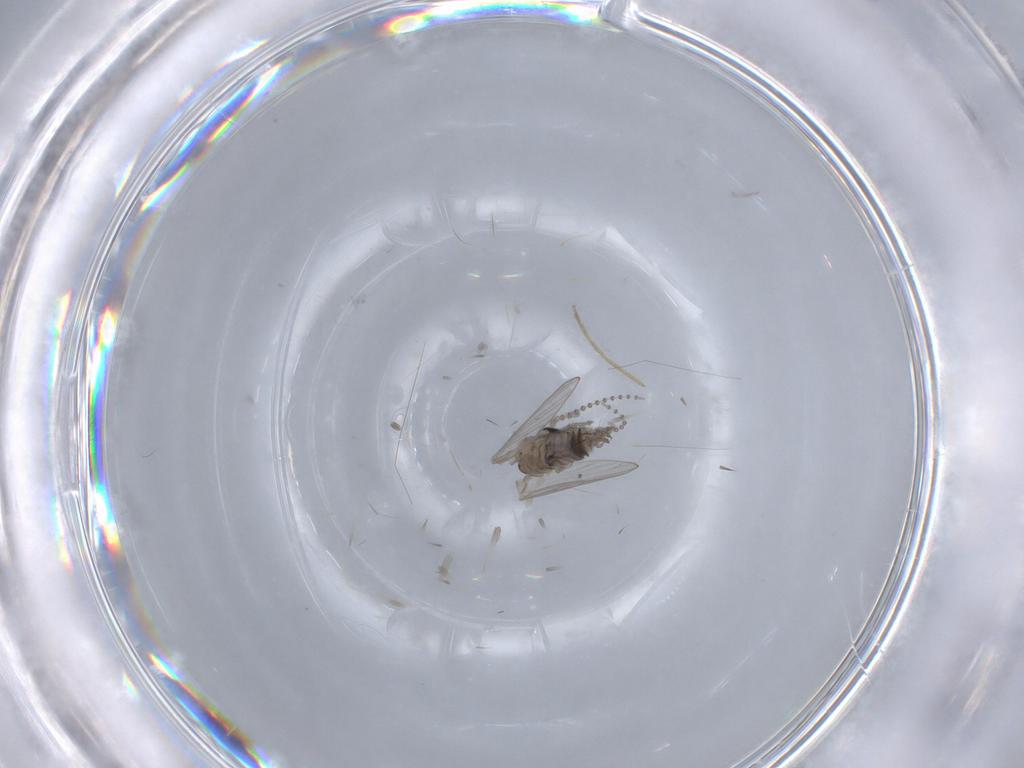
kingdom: Animalia
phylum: Arthropoda
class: Insecta
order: Diptera
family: Psychodidae
